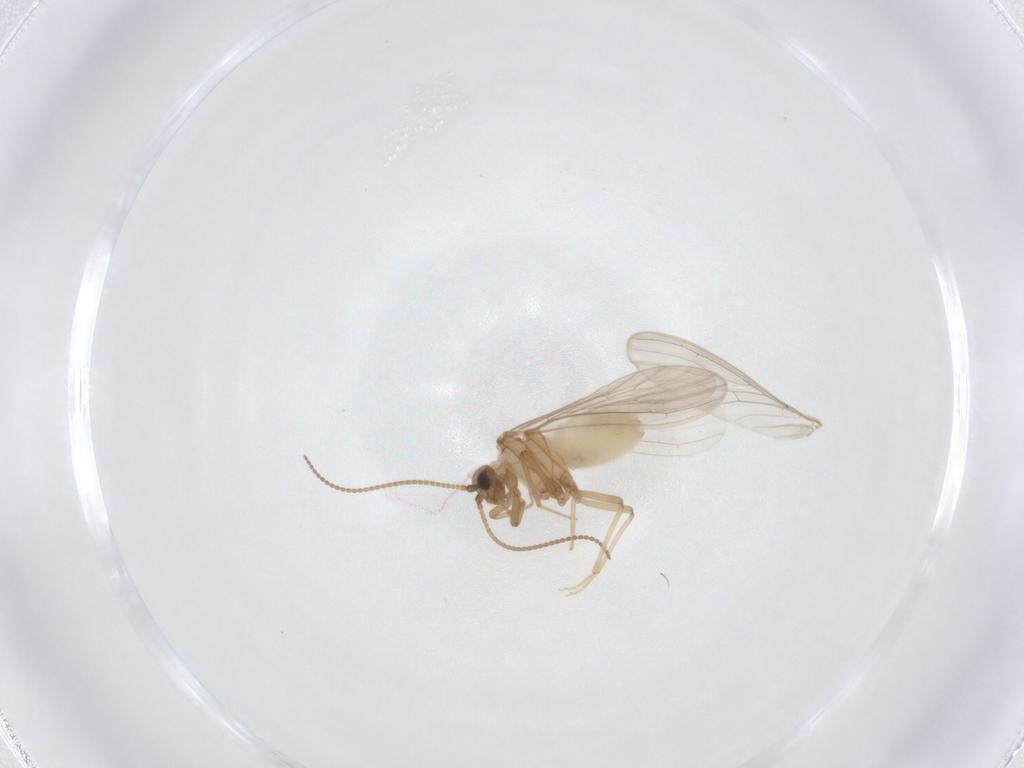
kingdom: Animalia
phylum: Arthropoda
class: Insecta
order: Neuroptera
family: Coniopterygidae
